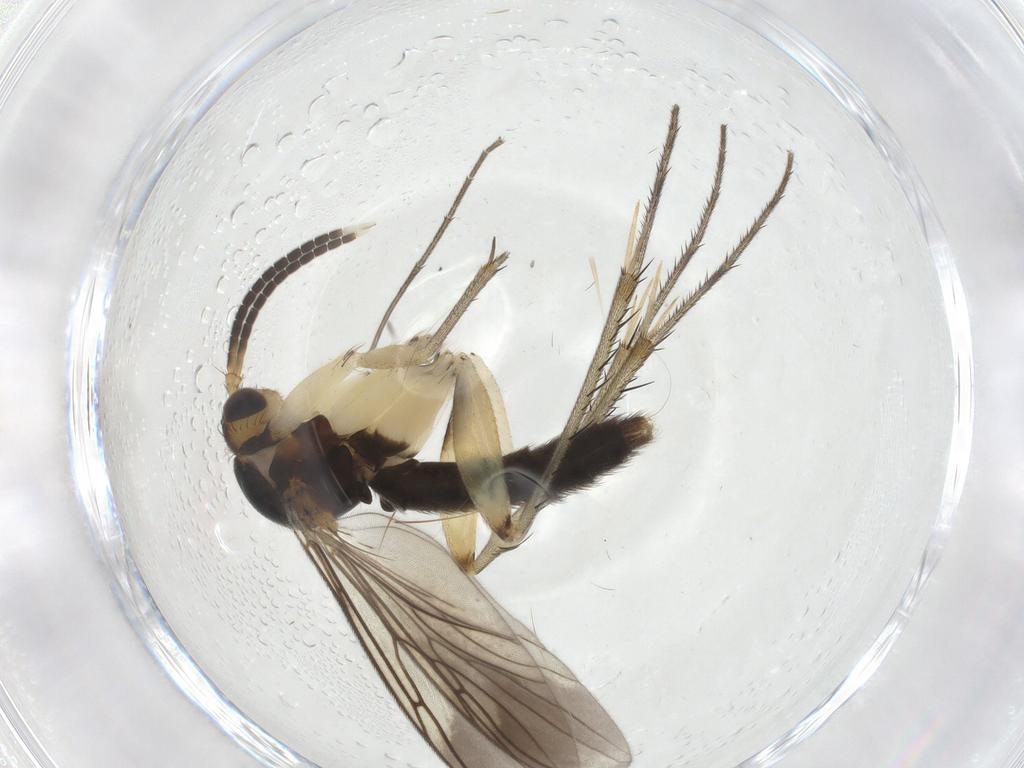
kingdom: Animalia
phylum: Arthropoda
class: Insecta
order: Diptera
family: Mycetophilidae
